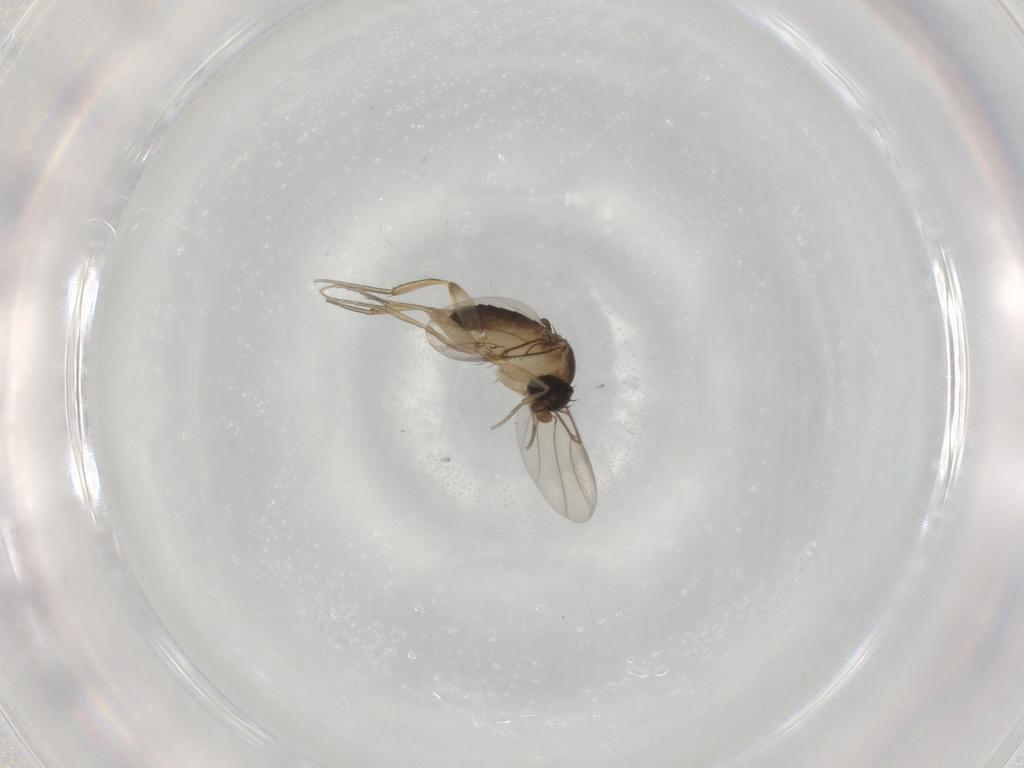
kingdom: Animalia
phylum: Arthropoda
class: Insecta
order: Diptera
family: Phoridae
